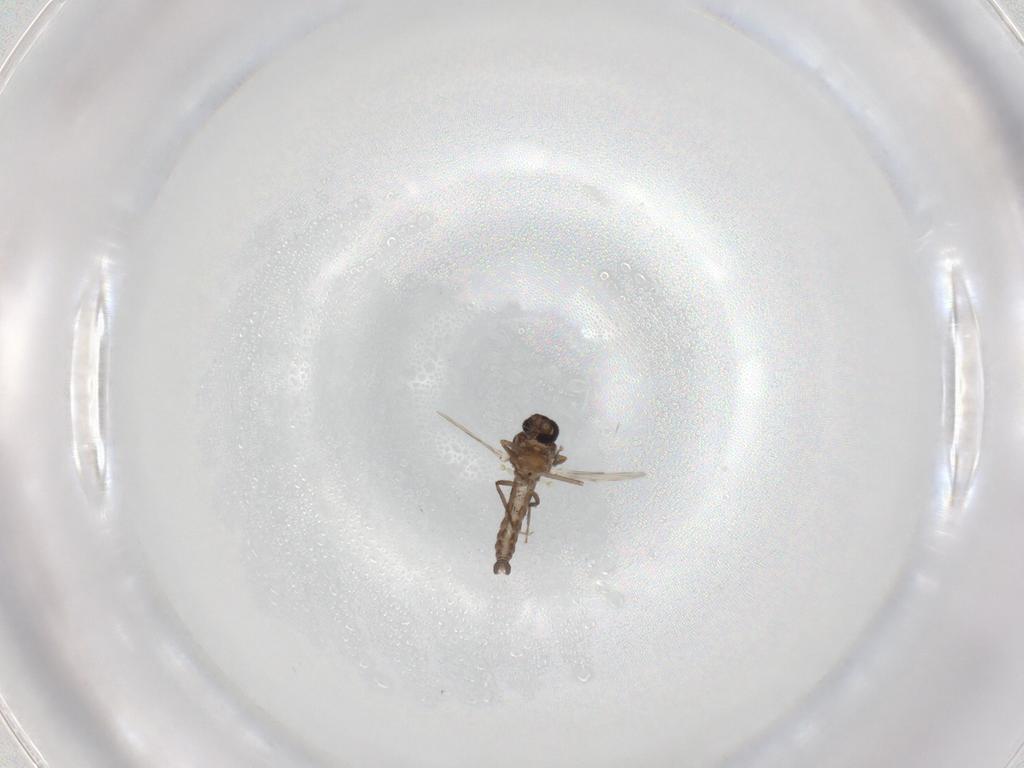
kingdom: Animalia
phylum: Arthropoda
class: Insecta
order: Diptera
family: Ceratopogonidae
